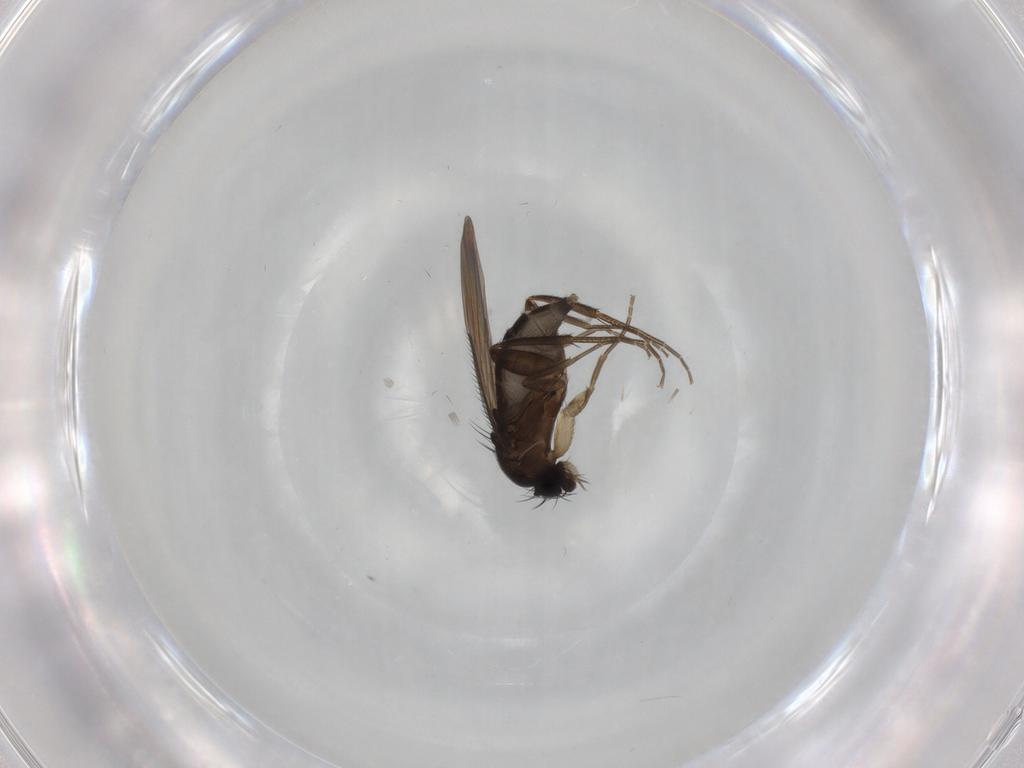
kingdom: Animalia
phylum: Arthropoda
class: Insecta
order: Diptera
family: Phoridae
